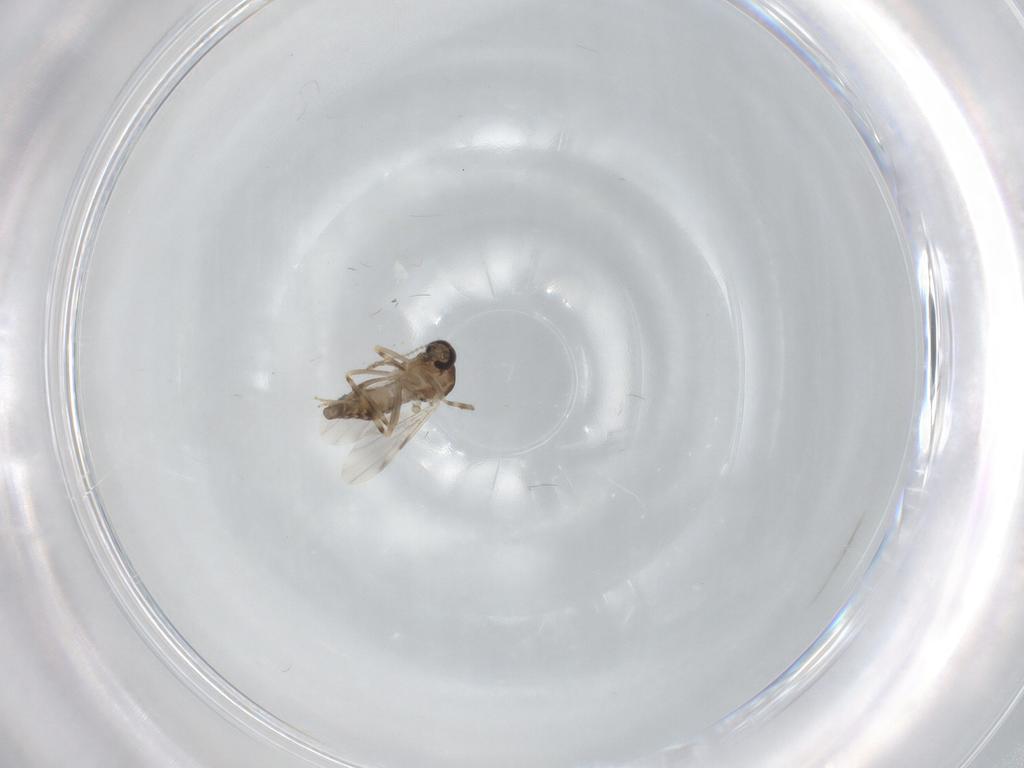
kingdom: Animalia
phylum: Arthropoda
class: Insecta
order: Diptera
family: Ceratopogonidae
